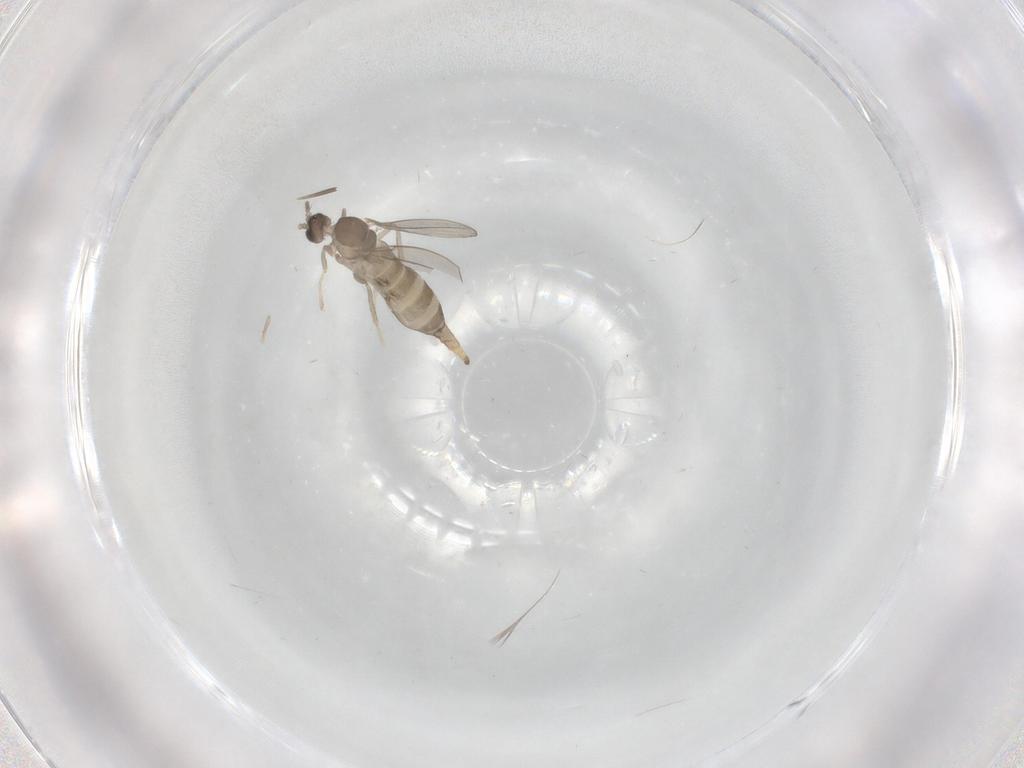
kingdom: Animalia
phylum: Arthropoda
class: Insecta
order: Diptera
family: Cecidomyiidae
